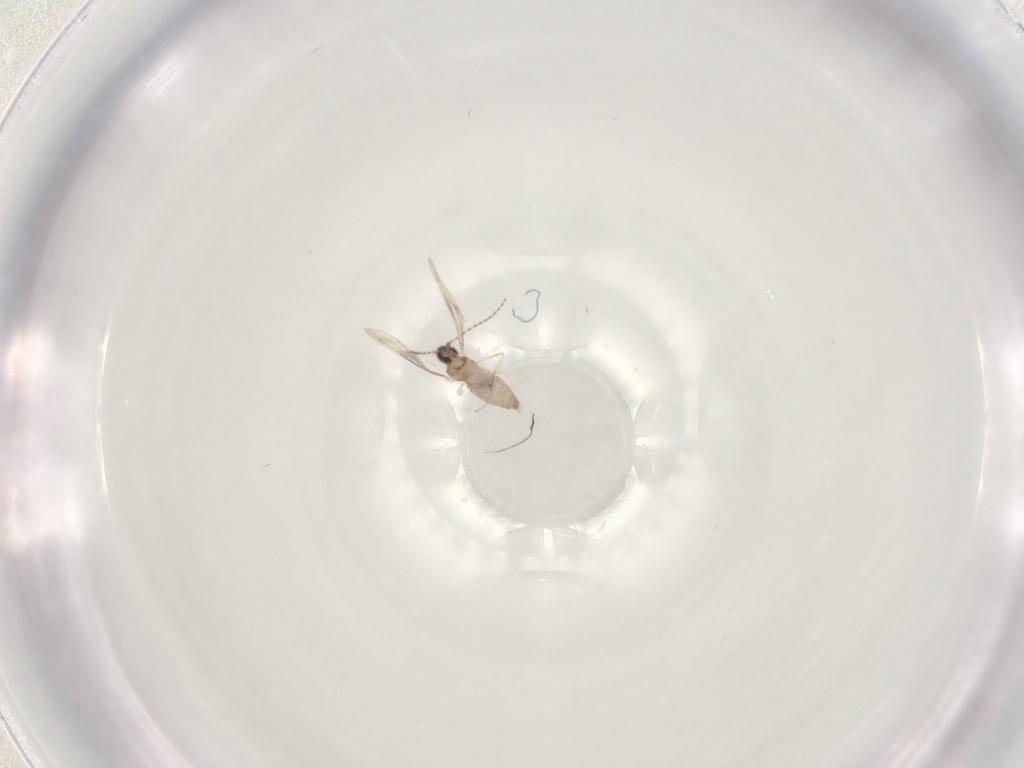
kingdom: Animalia
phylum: Arthropoda
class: Insecta
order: Diptera
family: Cecidomyiidae
